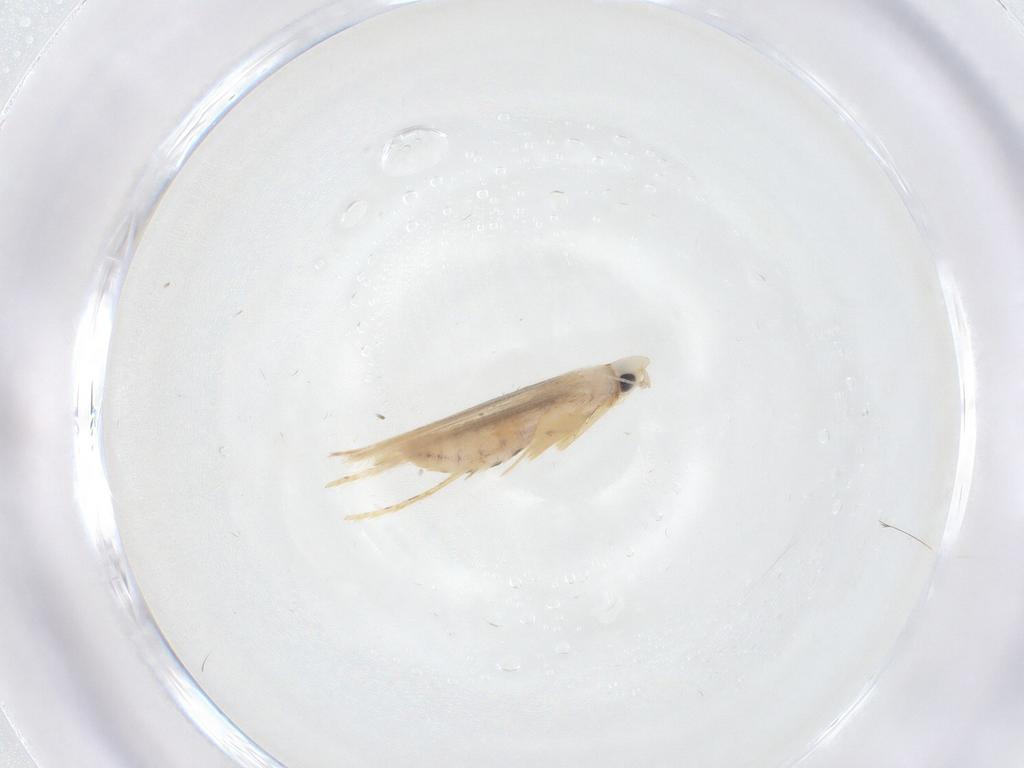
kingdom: Animalia
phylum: Arthropoda
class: Insecta
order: Lepidoptera
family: Tineidae
